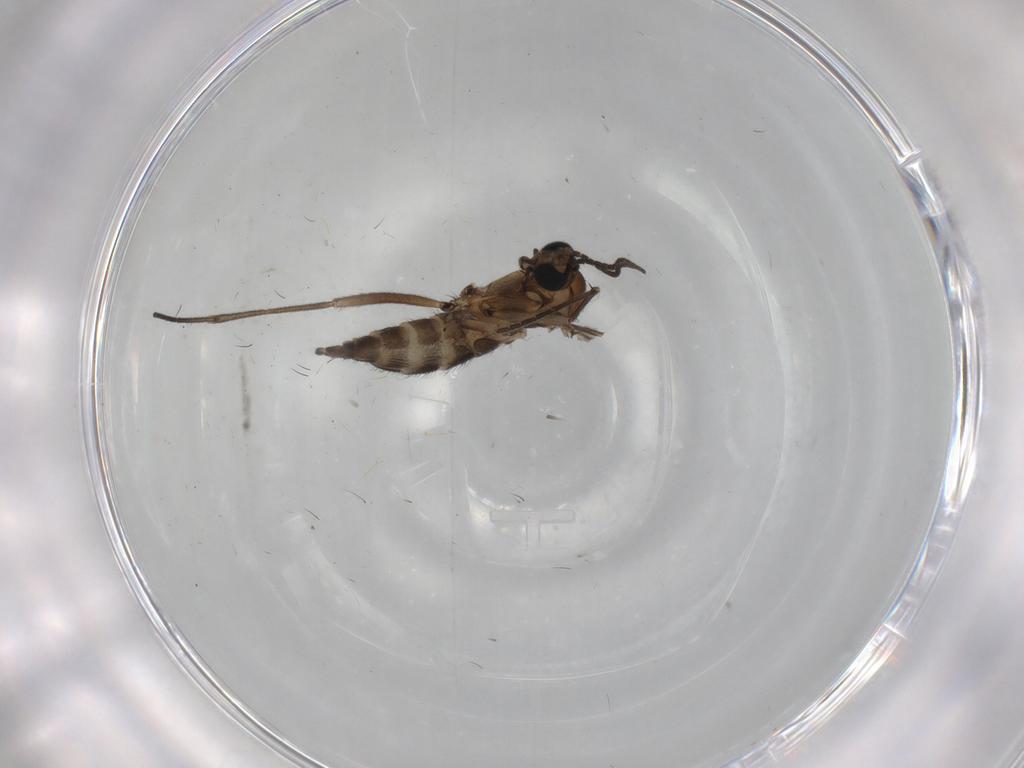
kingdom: Animalia
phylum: Arthropoda
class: Insecta
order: Diptera
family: Sciaridae
